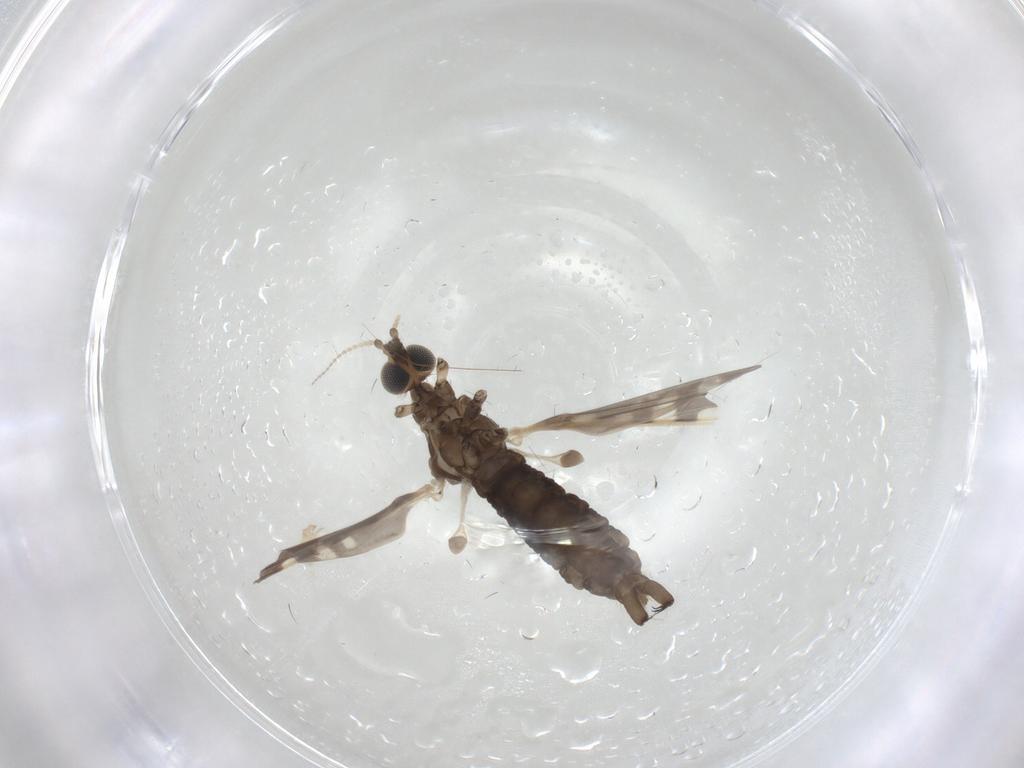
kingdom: Animalia
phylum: Arthropoda
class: Insecta
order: Diptera
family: Limoniidae
